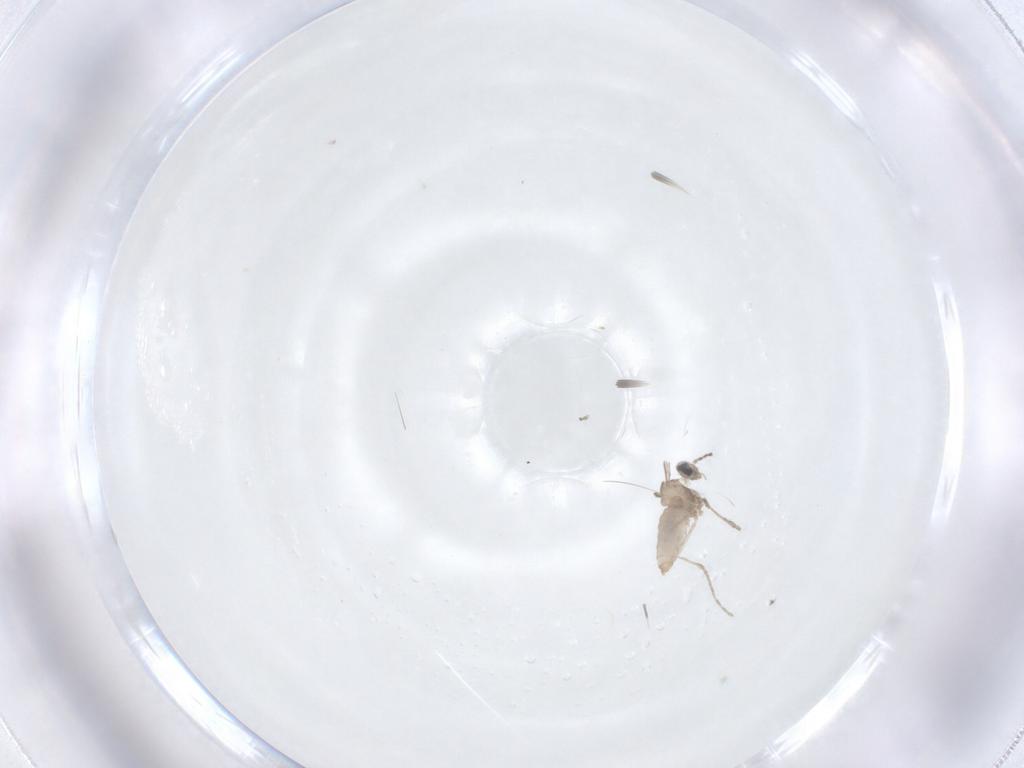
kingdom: Animalia
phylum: Arthropoda
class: Insecta
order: Diptera
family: Cecidomyiidae
